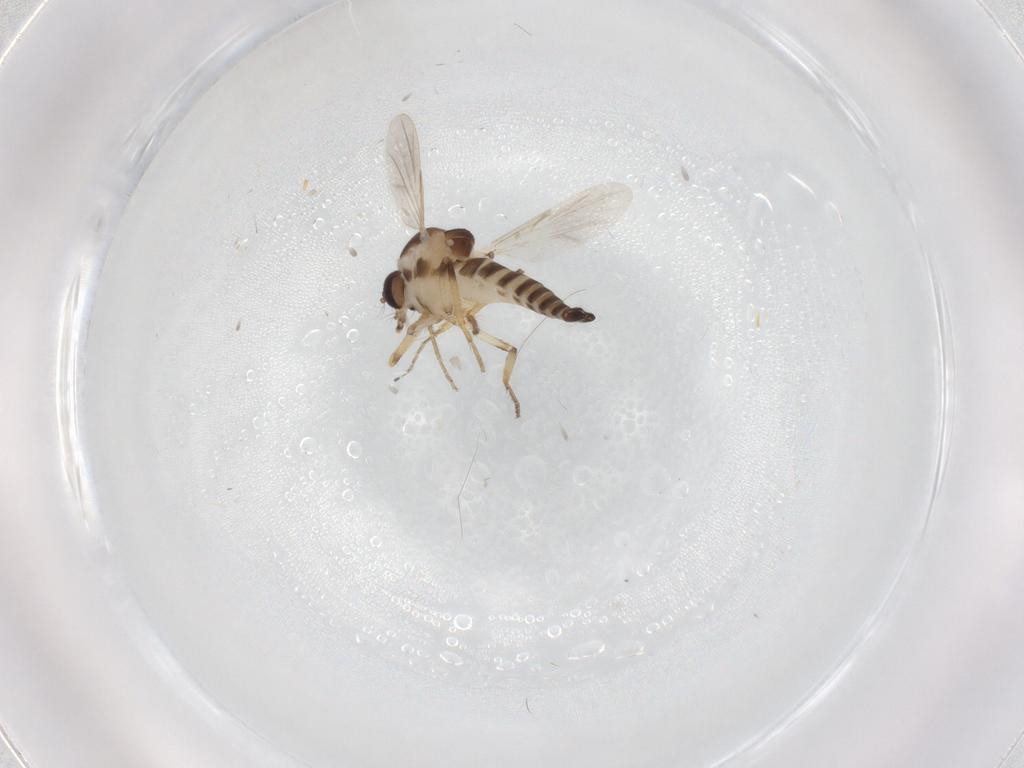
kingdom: Animalia
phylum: Arthropoda
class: Insecta
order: Diptera
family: Ceratopogonidae
